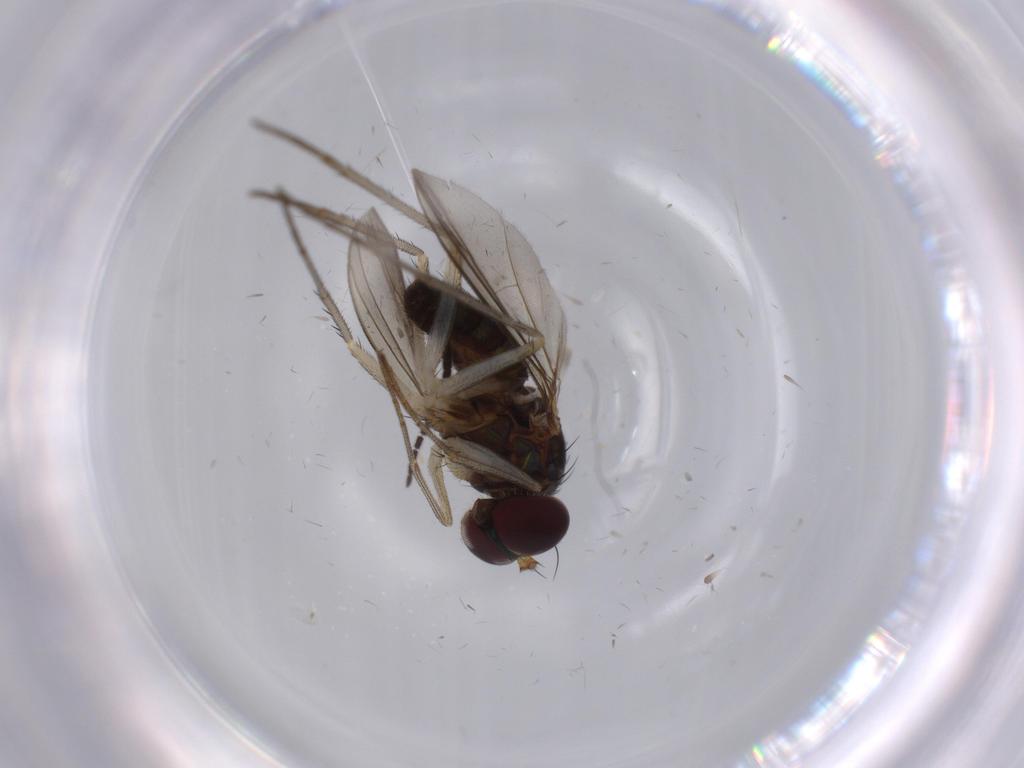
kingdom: Animalia
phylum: Arthropoda
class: Insecta
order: Diptera
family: Dolichopodidae
